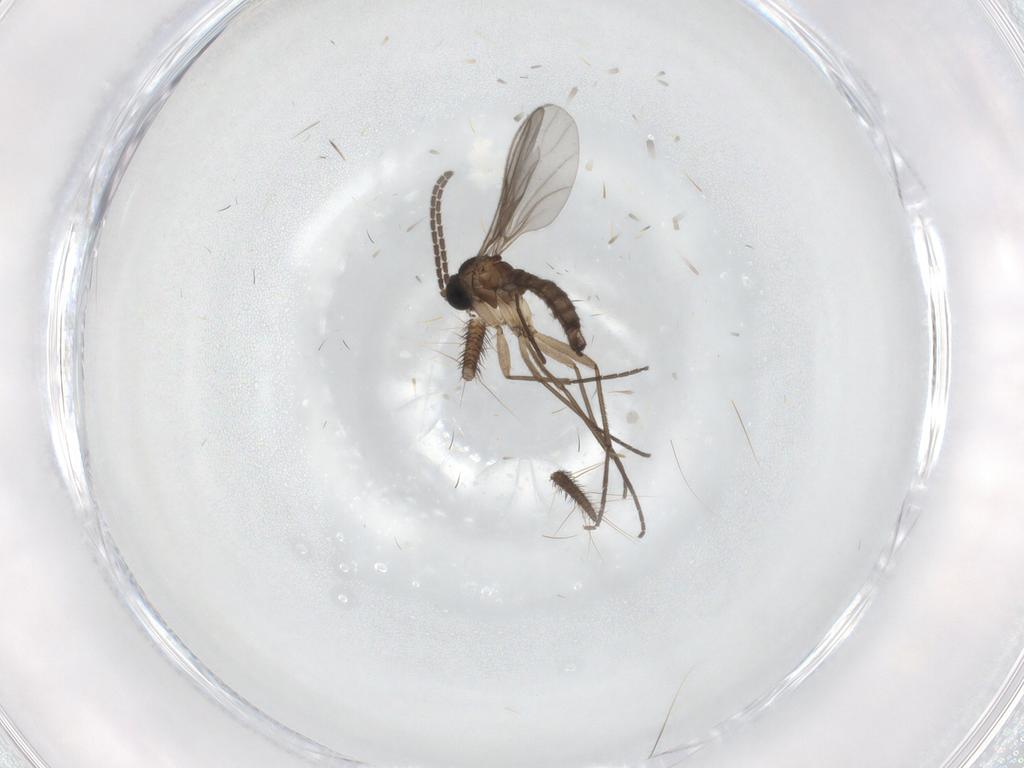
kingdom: Animalia
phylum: Arthropoda
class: Insecta
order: Diptera
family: Sciaridae
